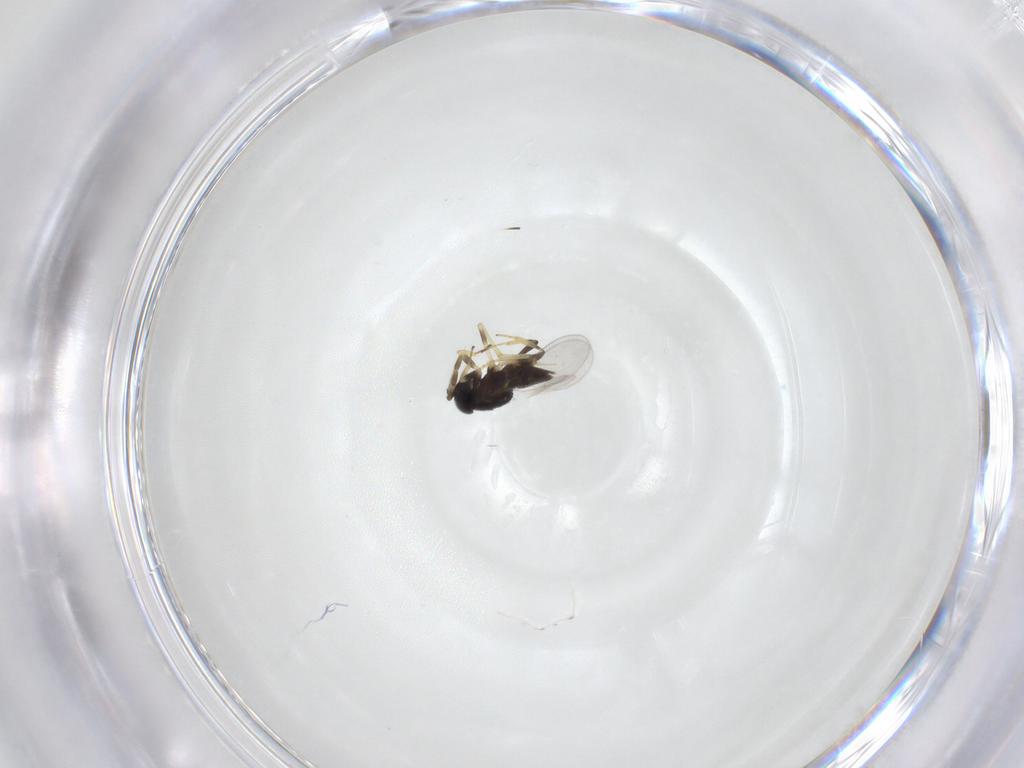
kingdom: Animalia
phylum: Arthropoda
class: Insecta
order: Hymenoptera
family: Encyrtidae
